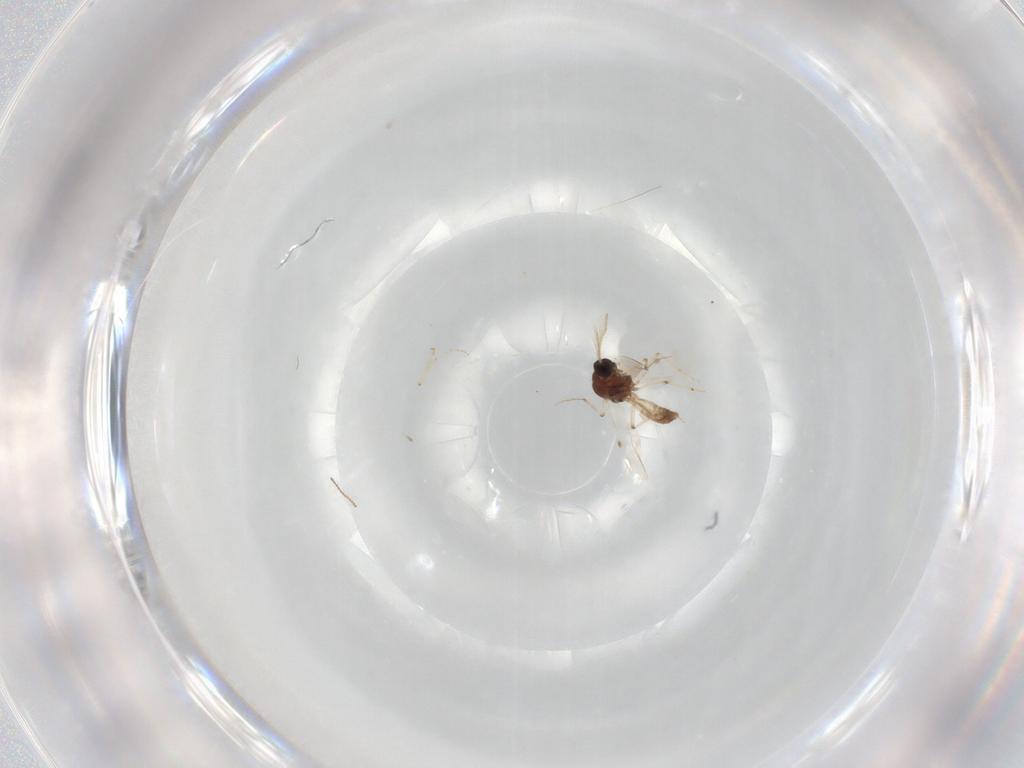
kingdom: Animalia
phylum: Arthropoda
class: Insecta
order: Diptera
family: Ceratopogonidae
